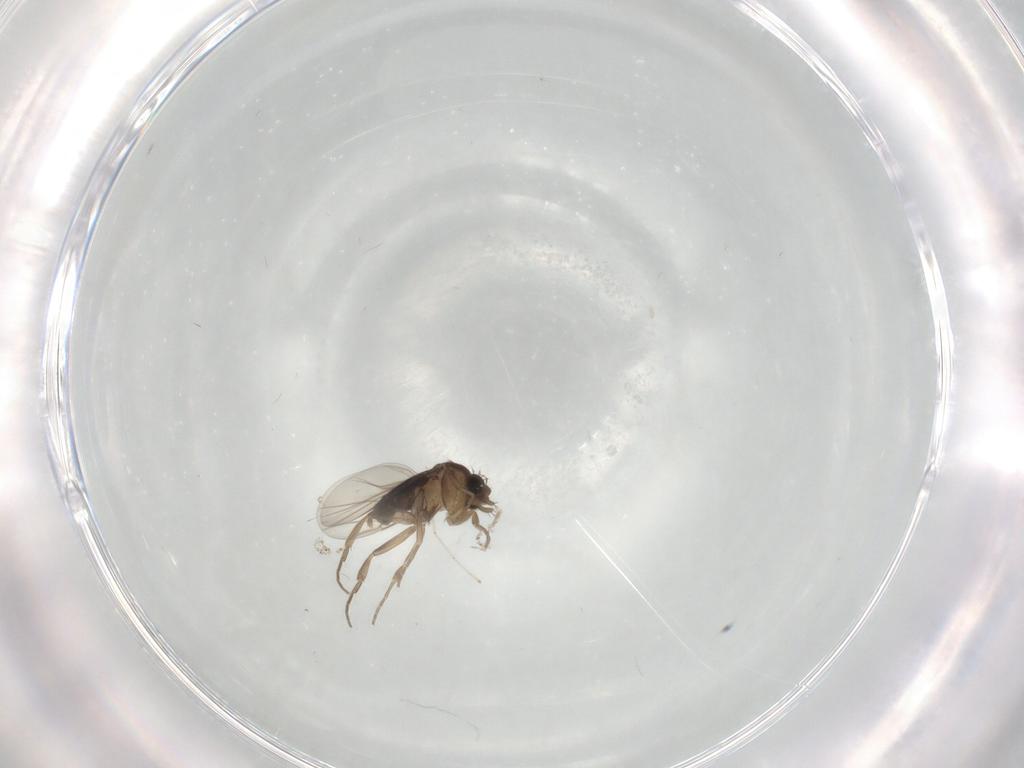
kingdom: Animalia
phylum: Arthropoda
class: Insecta
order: Diptera
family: Phoridae
